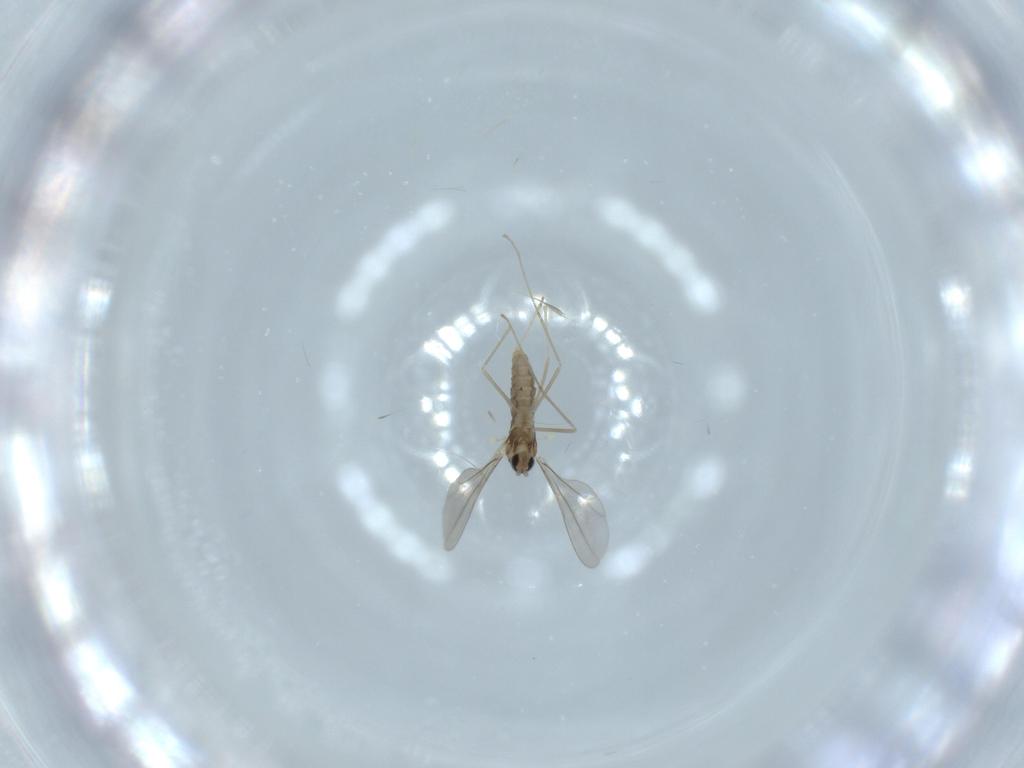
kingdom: Animalia
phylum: Arthropoda
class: Insecta
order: Diptera
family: Cecidomyiidae
